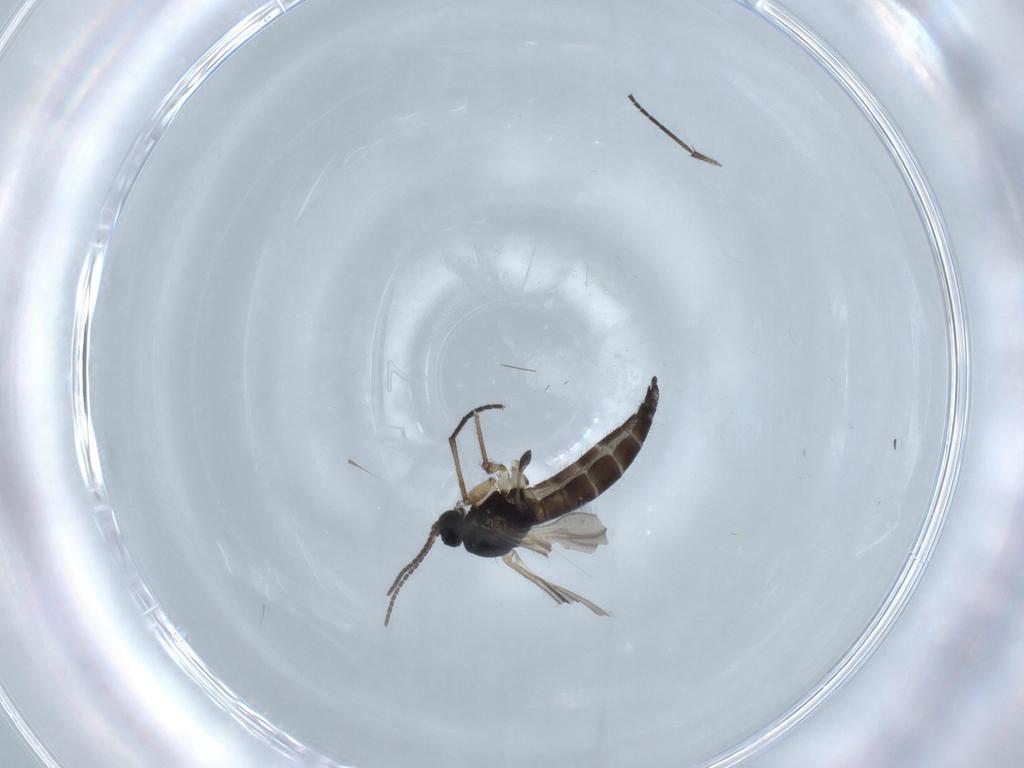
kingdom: Animalia
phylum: Arthropoda
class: Insecta
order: Diptera
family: Sciaridae
